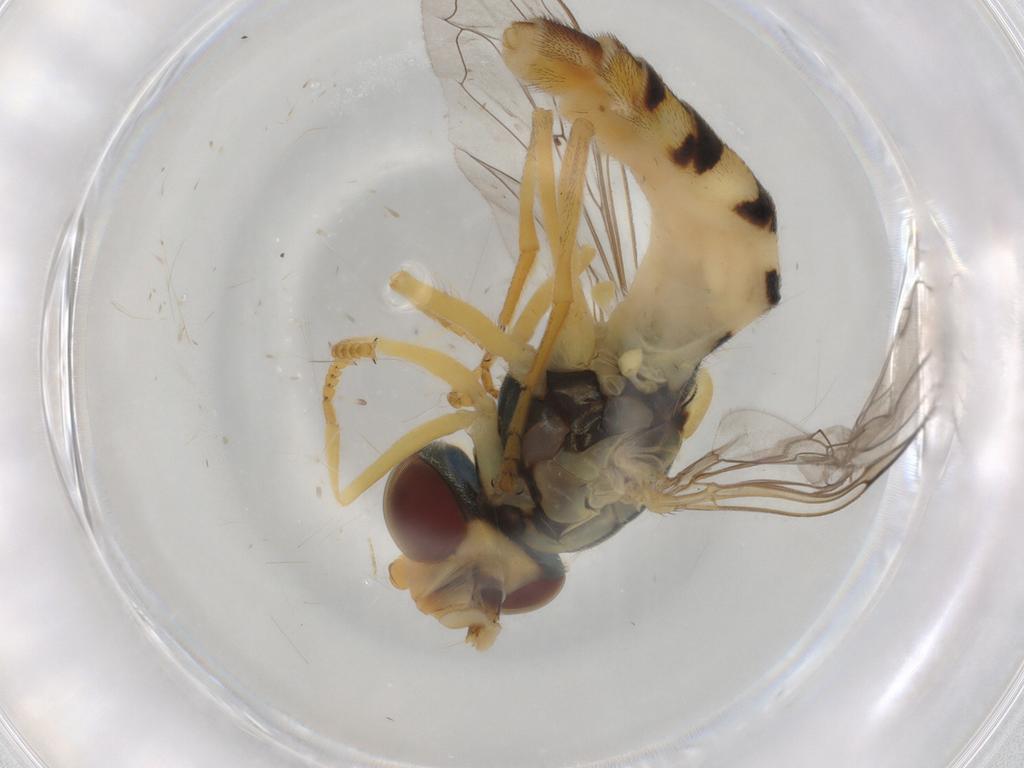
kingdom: Animalia
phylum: Arthropoda
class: Insecta
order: Diptera
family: Syrphidae
